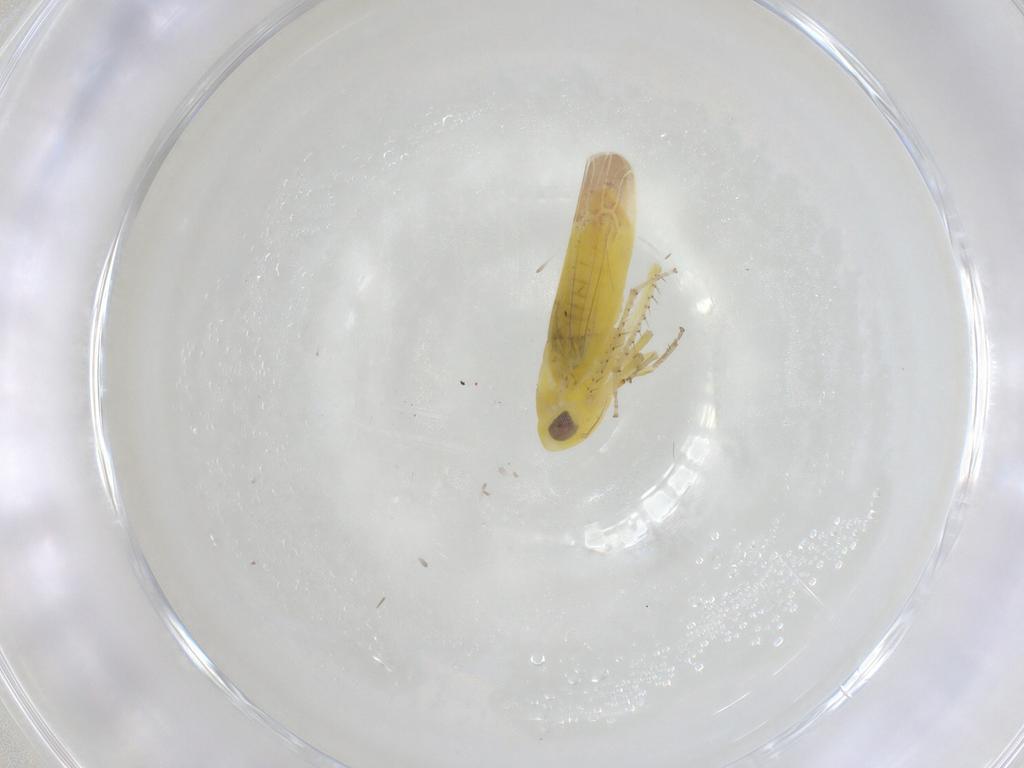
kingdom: Animalia
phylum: Arthropoda
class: Insecta
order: Hemiptera
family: Cicadellidae
